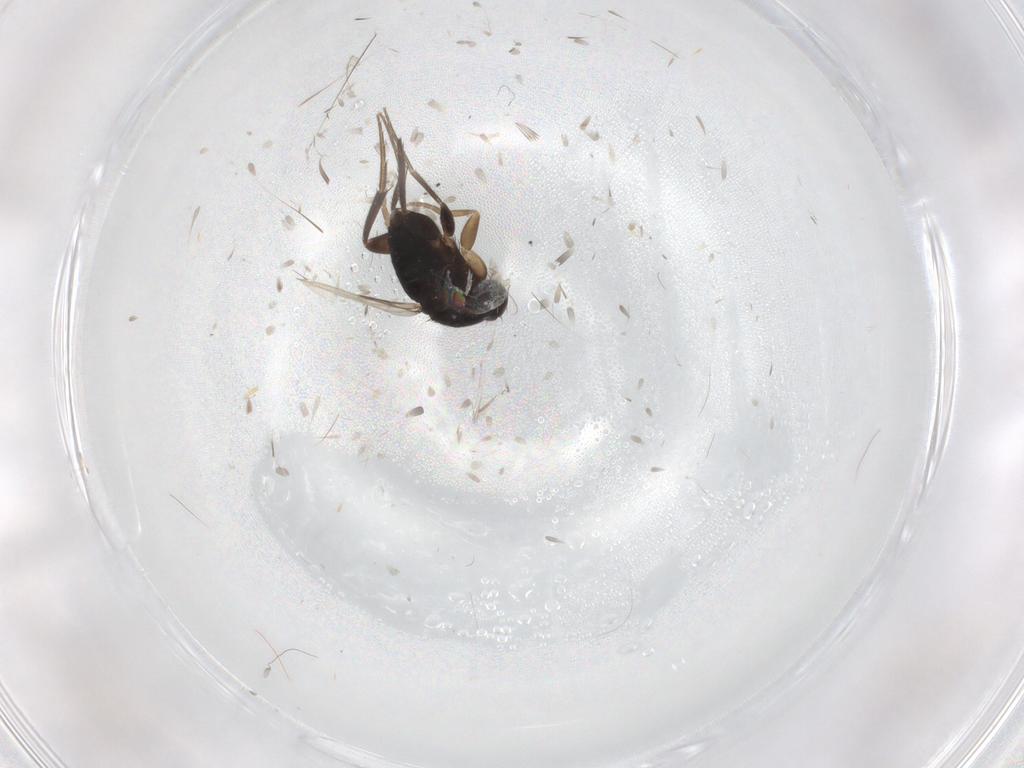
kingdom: Animalia
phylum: Arthropoda
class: Insecta
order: Diptera
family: Phoridae
